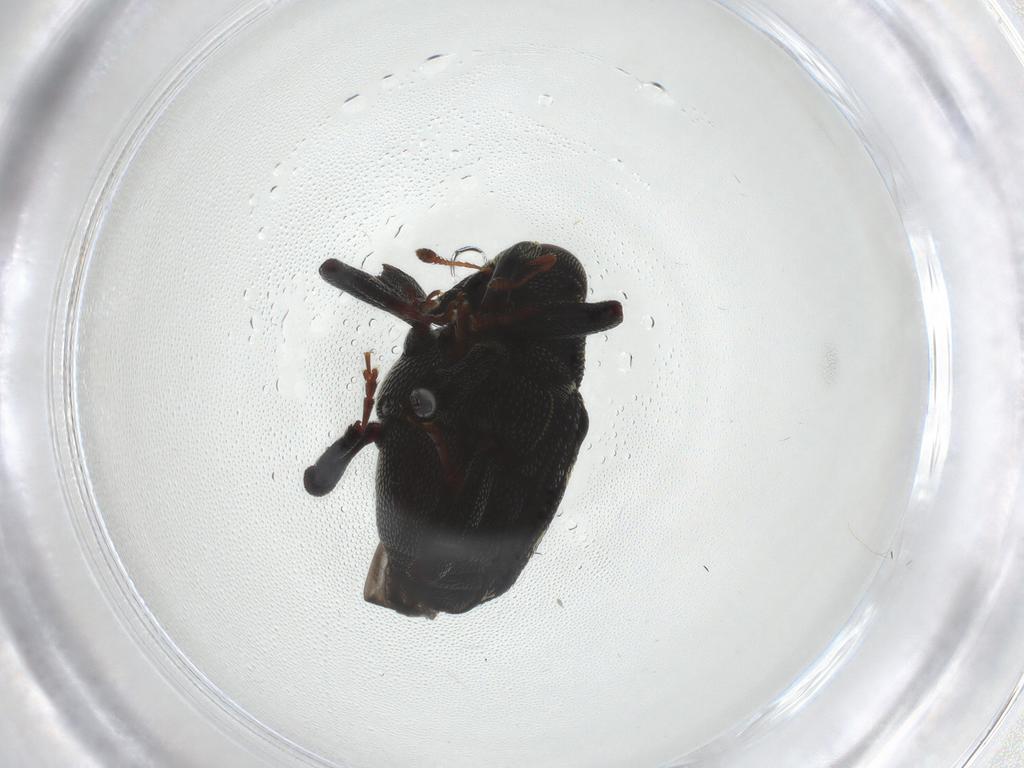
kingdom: Animalia
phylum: Arthropoda
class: Insecta
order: Coleoptera
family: Curculionidae
